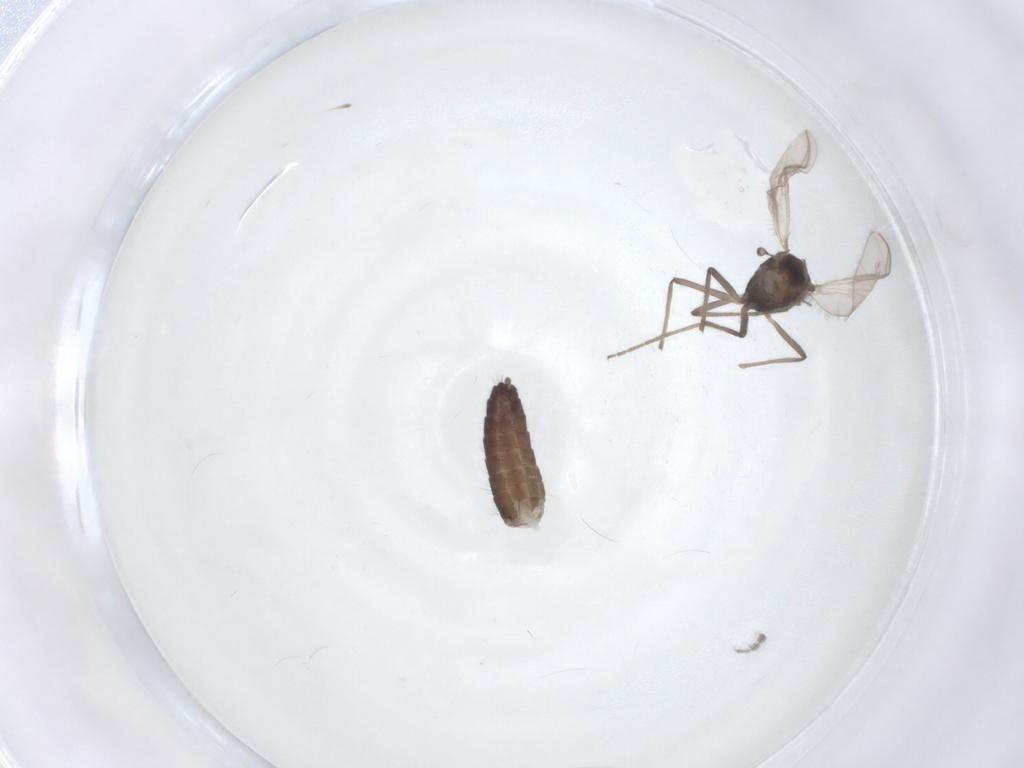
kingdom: Animalia
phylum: Arthropoda
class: Insecta
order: Diptera
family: Chironomidae
